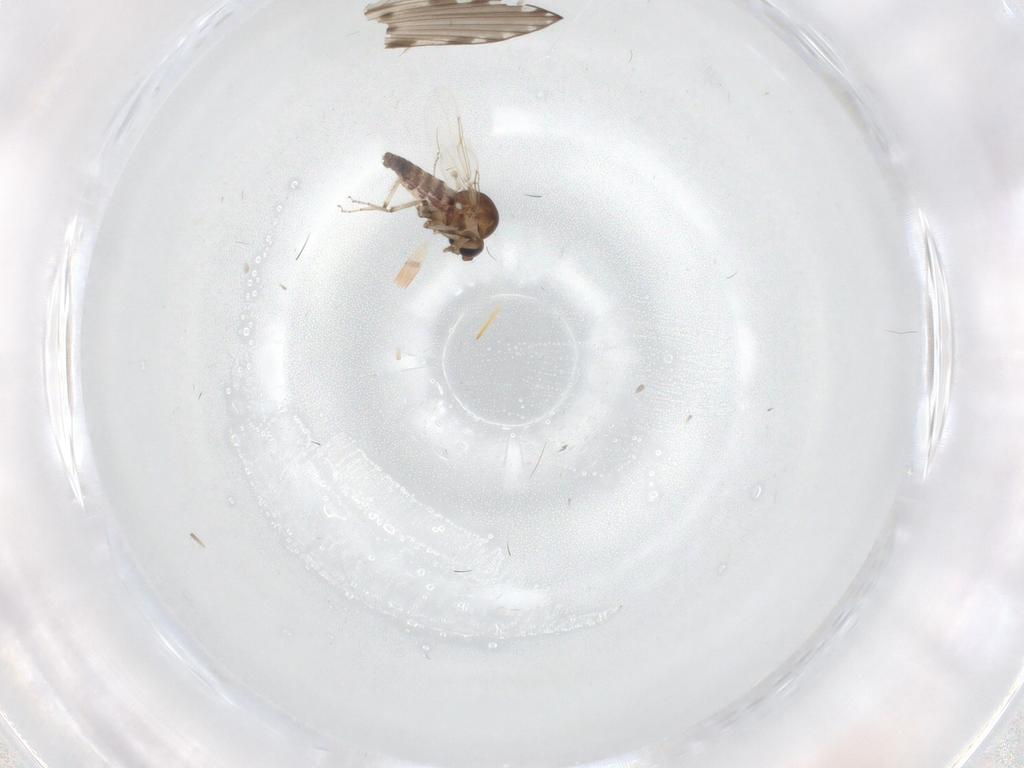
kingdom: Animalia
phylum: Arthropoda
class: Insecta
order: Diptera
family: Ceratopogonidae
